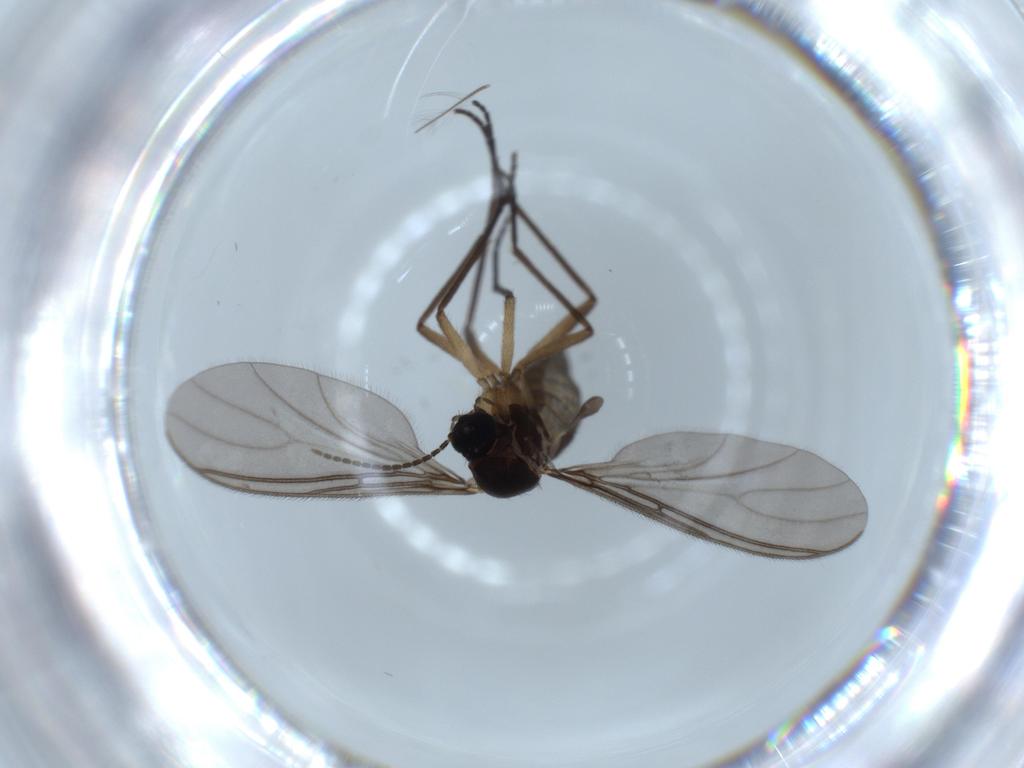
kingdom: Animalia
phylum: Arthropoda
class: Insecta
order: Diptera
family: Sciaridae
